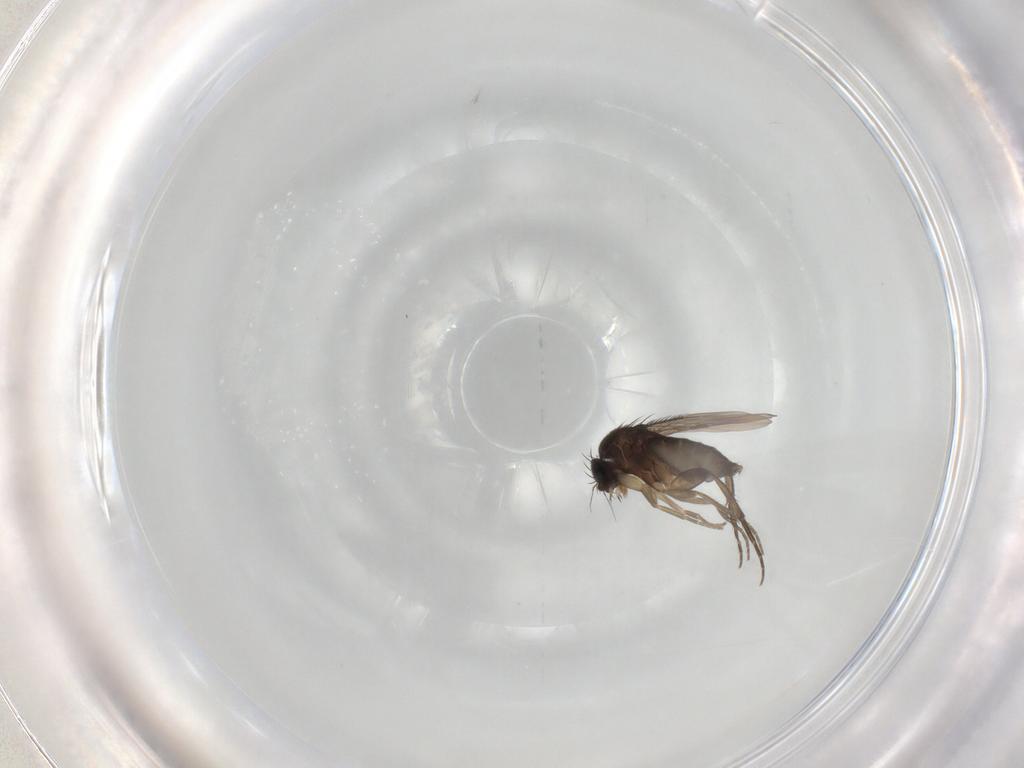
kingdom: Animalia
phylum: Arthropoda
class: Insecta
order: Diptera
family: Phoridae
